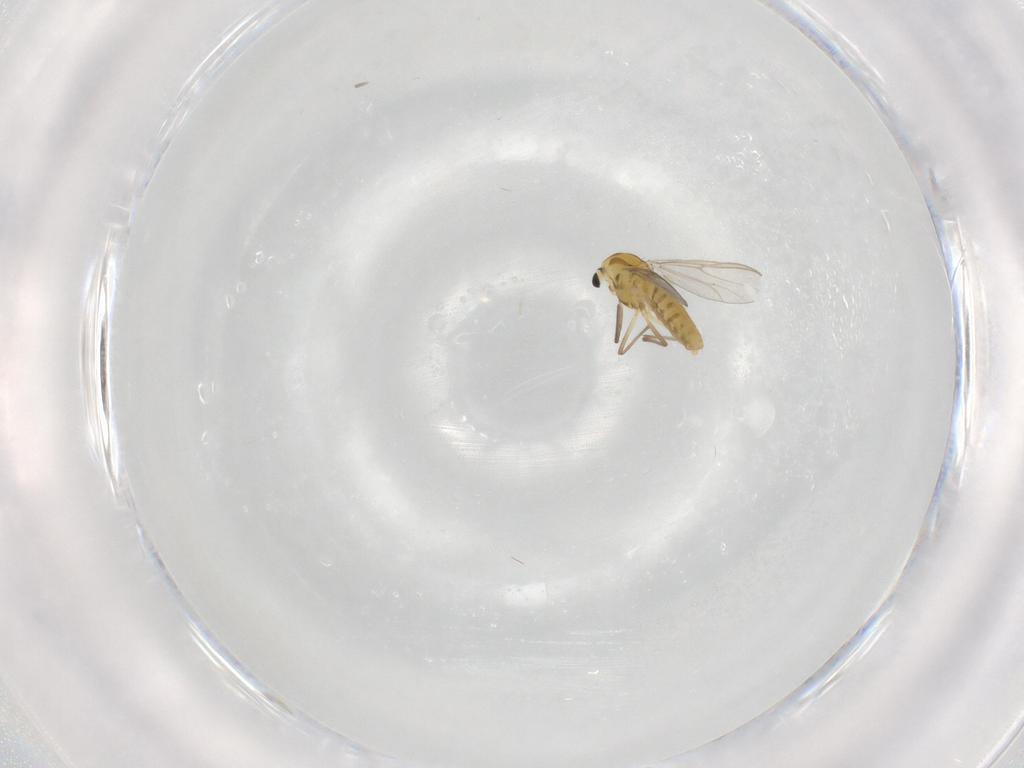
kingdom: Animalia
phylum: Arthropoda
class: Insecta
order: Diptera
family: Chironomidae
